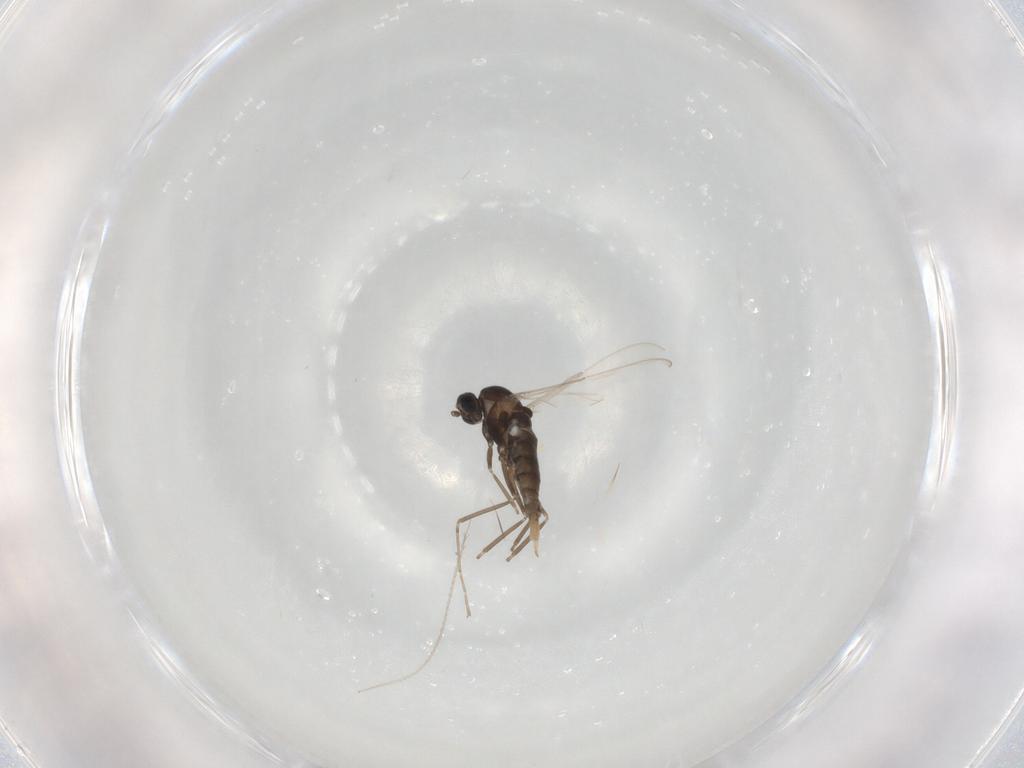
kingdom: Animalia
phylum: Arthropoda
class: Insecta
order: Diptera
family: Cecidomyiidae
